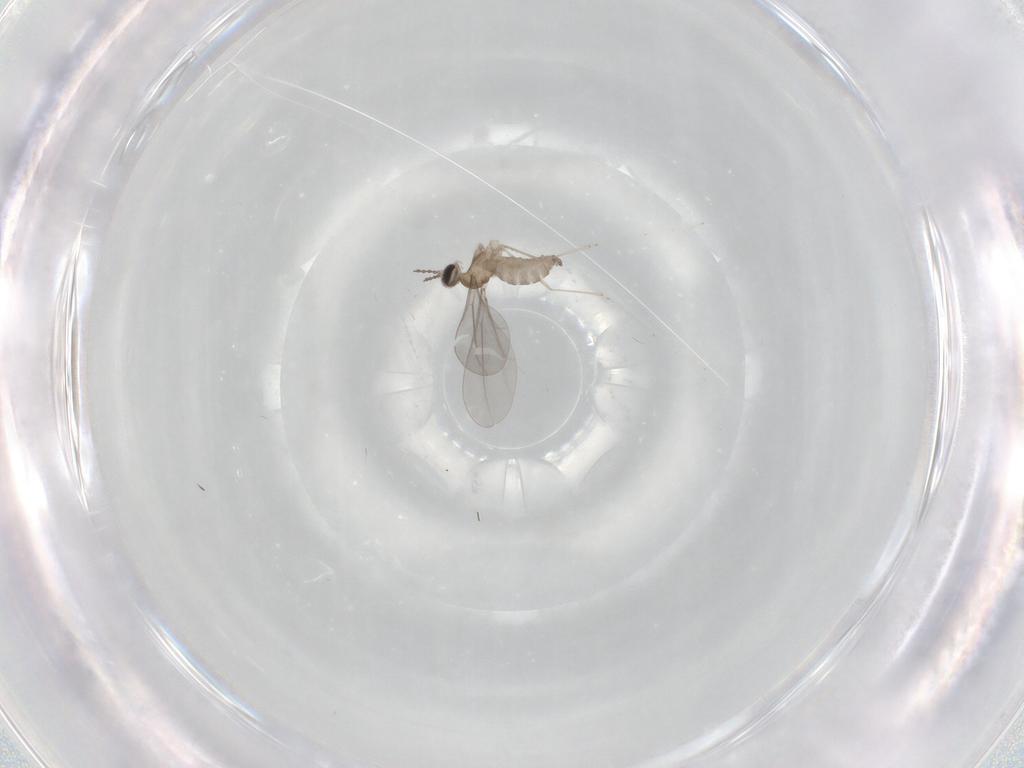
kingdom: Animalia
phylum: Arthropoda
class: Insecta
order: Diptera
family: Cecidomyiidae
